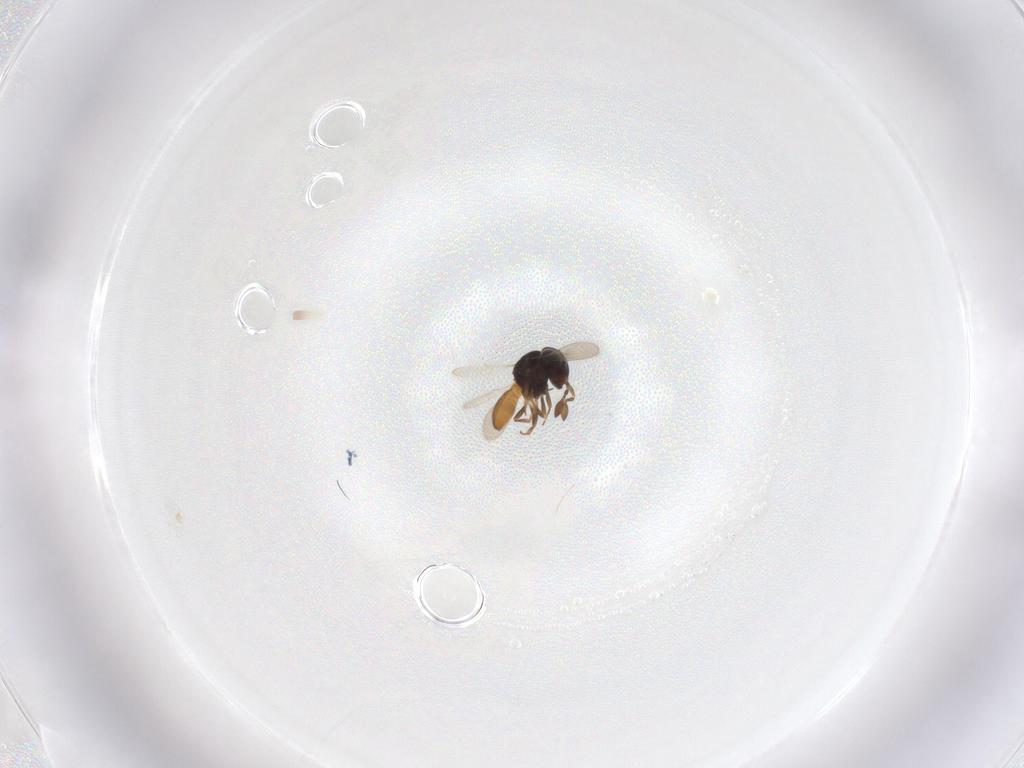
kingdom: Animalia
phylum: Arthropoda
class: Insecta
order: Hymenoptera
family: Scelionidae
